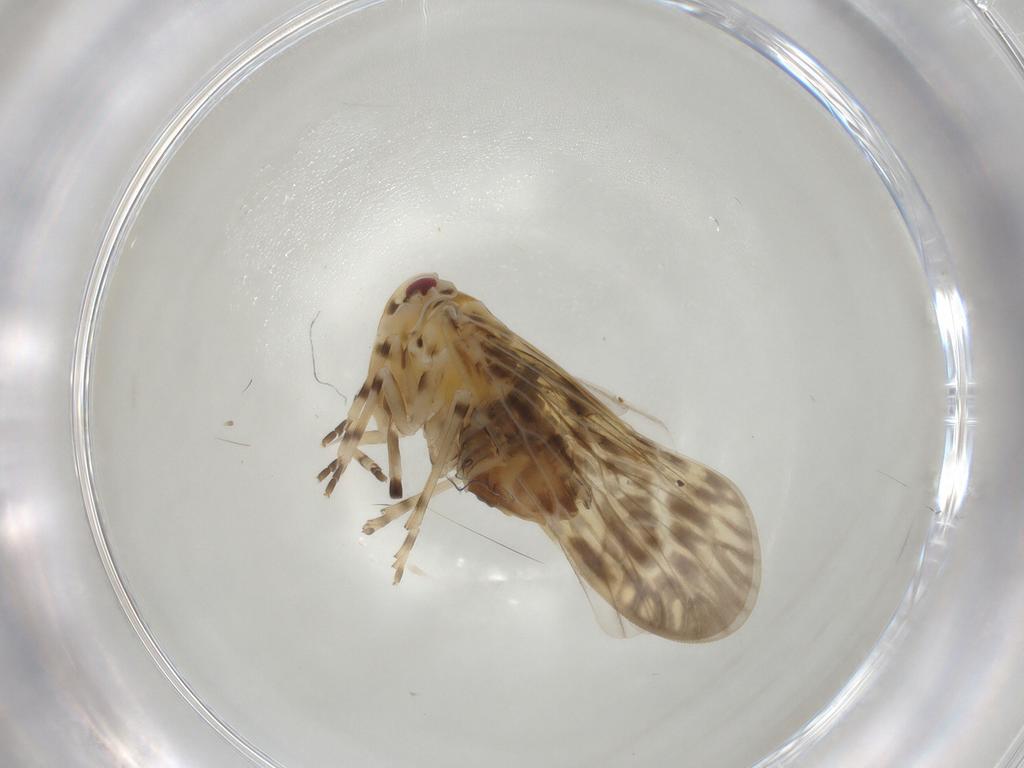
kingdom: Animalia
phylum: Arthropoda
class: Insecta
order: Hemiptera
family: Derbidae
